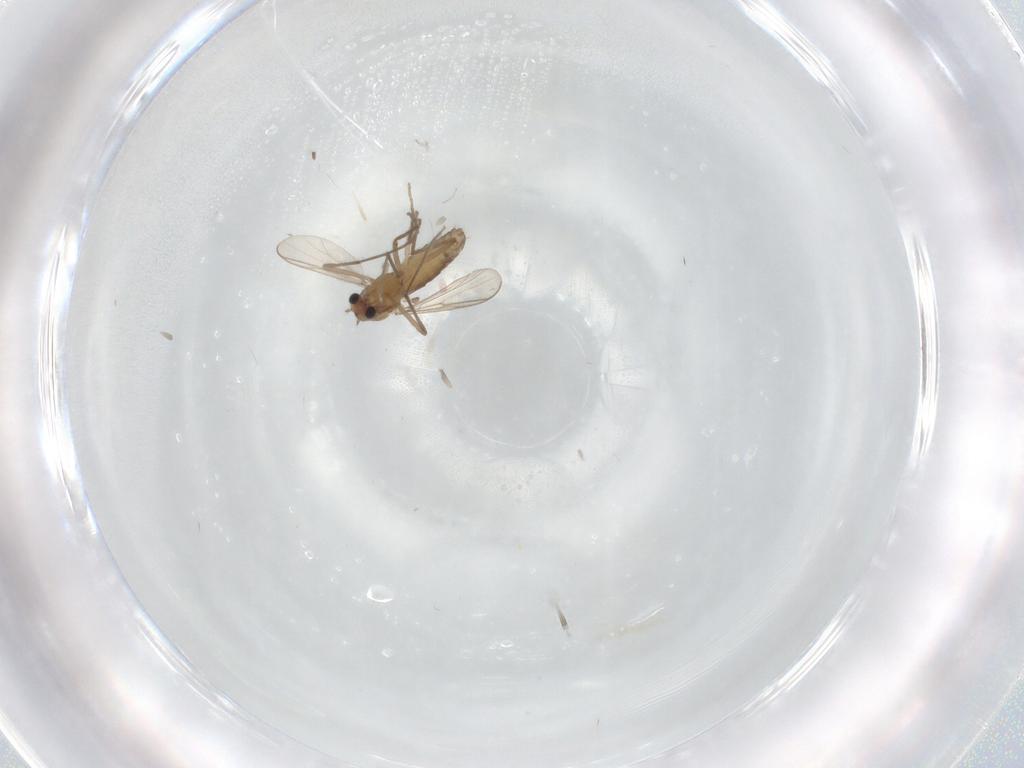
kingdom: Animalia
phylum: Arthropoda
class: Insecta
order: Diptera
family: Chironomidae
